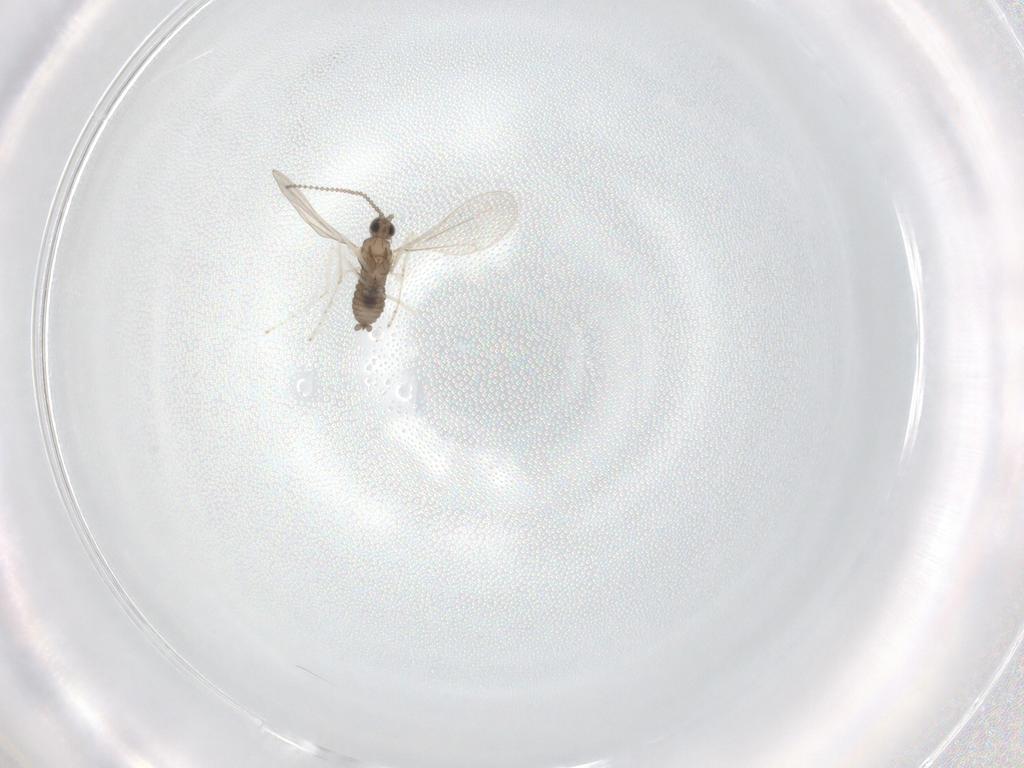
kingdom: Animalia
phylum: Arthropoda
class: Insecta
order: Diptera
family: Cecidomyiidae
